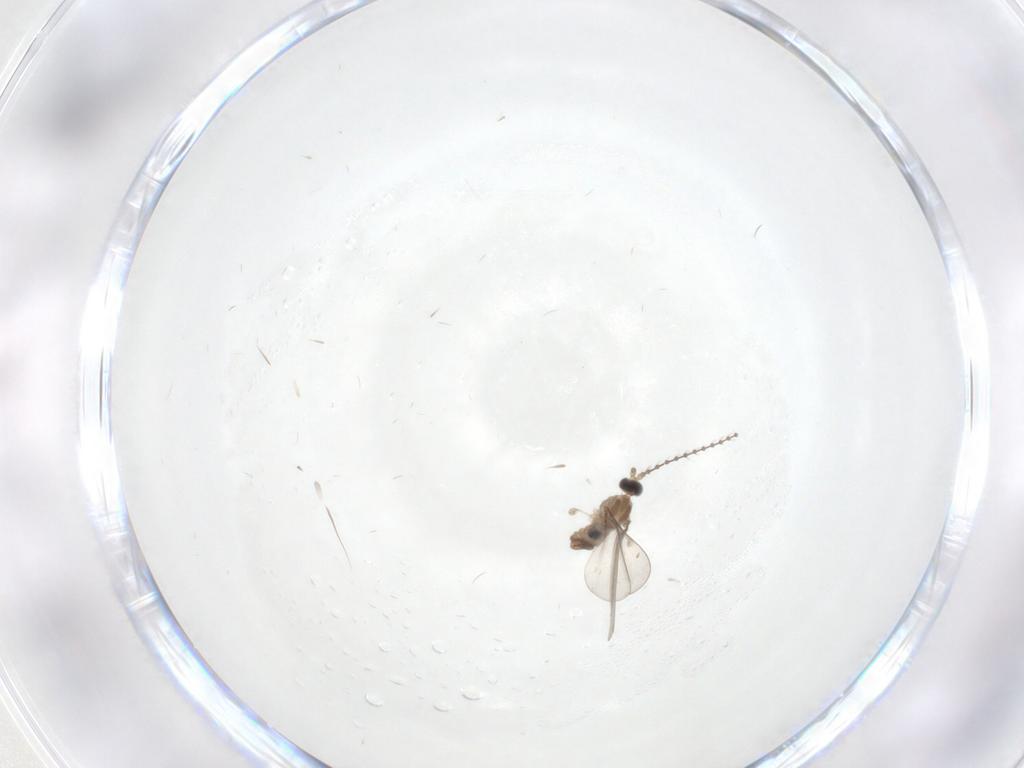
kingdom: Animalia
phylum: Arthropoda
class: Insecta
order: Diptera
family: Sciaridae
